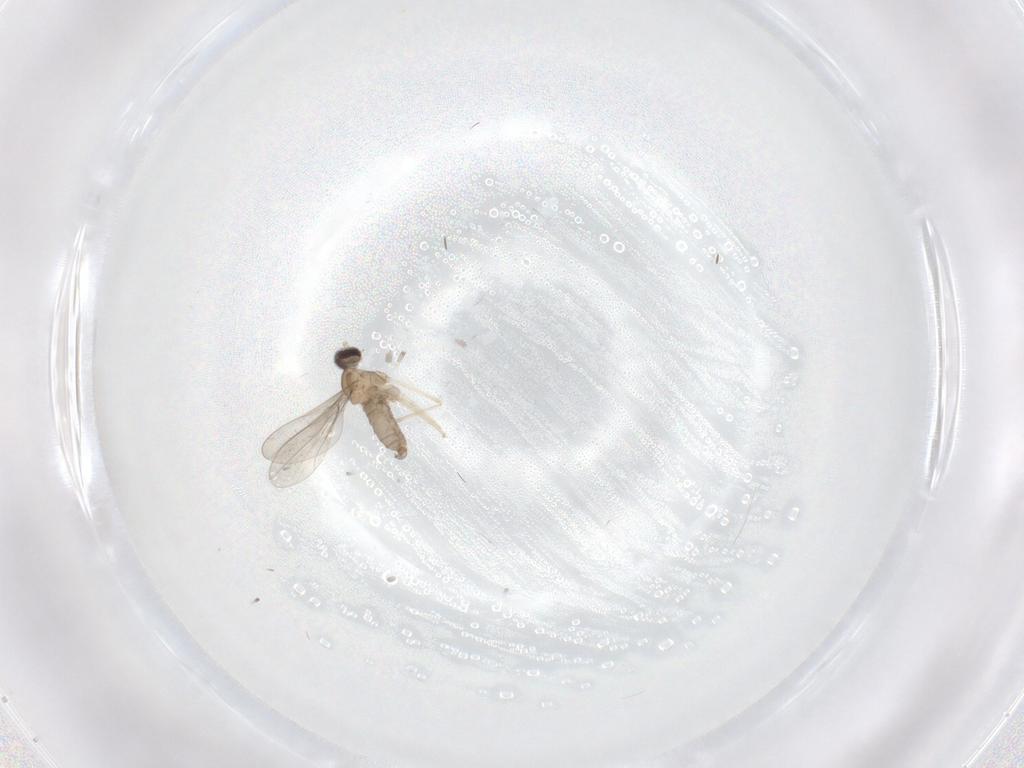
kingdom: Animalia
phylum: Arthropoda
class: Insecta
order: Diptera
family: Cecidomyiidae
